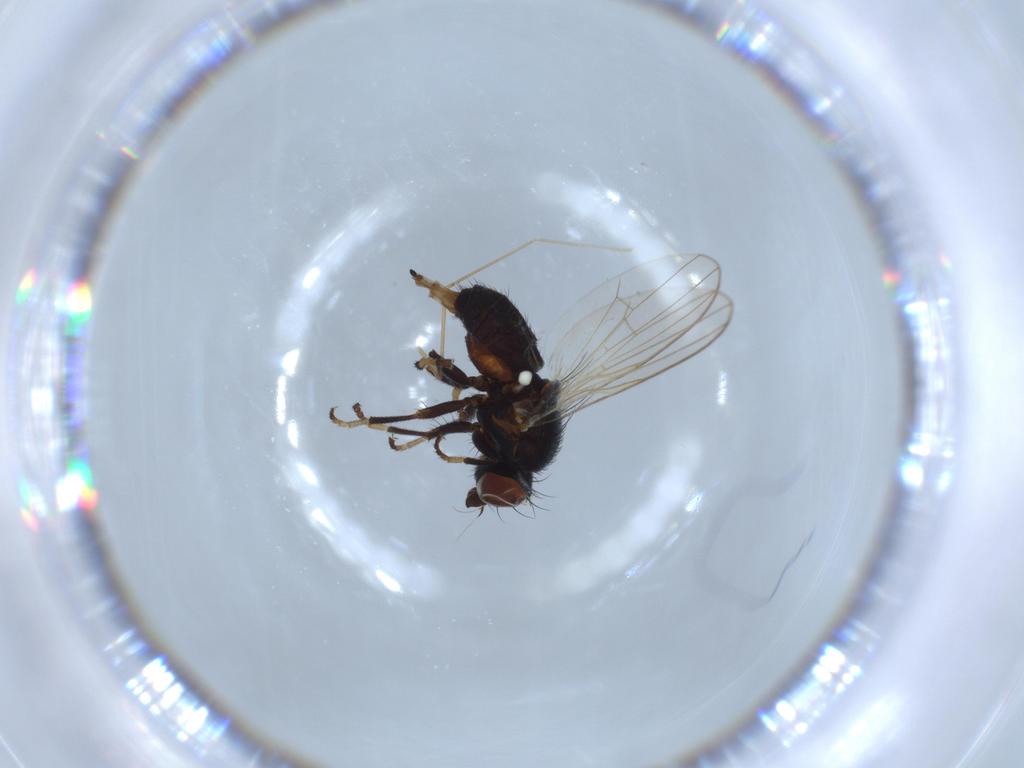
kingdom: Animalia
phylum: Arthropoda
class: Insecta
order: Diptera
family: Chamaemyiidae
